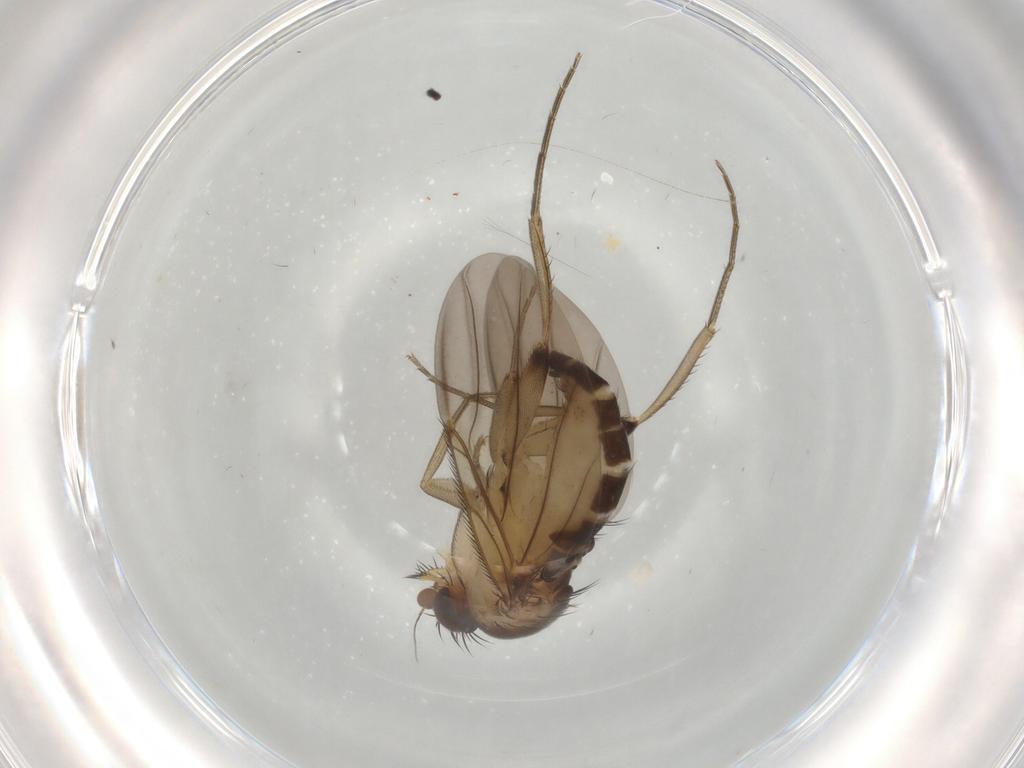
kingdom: Animalia
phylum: Arthropoda
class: Insecta
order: Diptera
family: Phoridae
